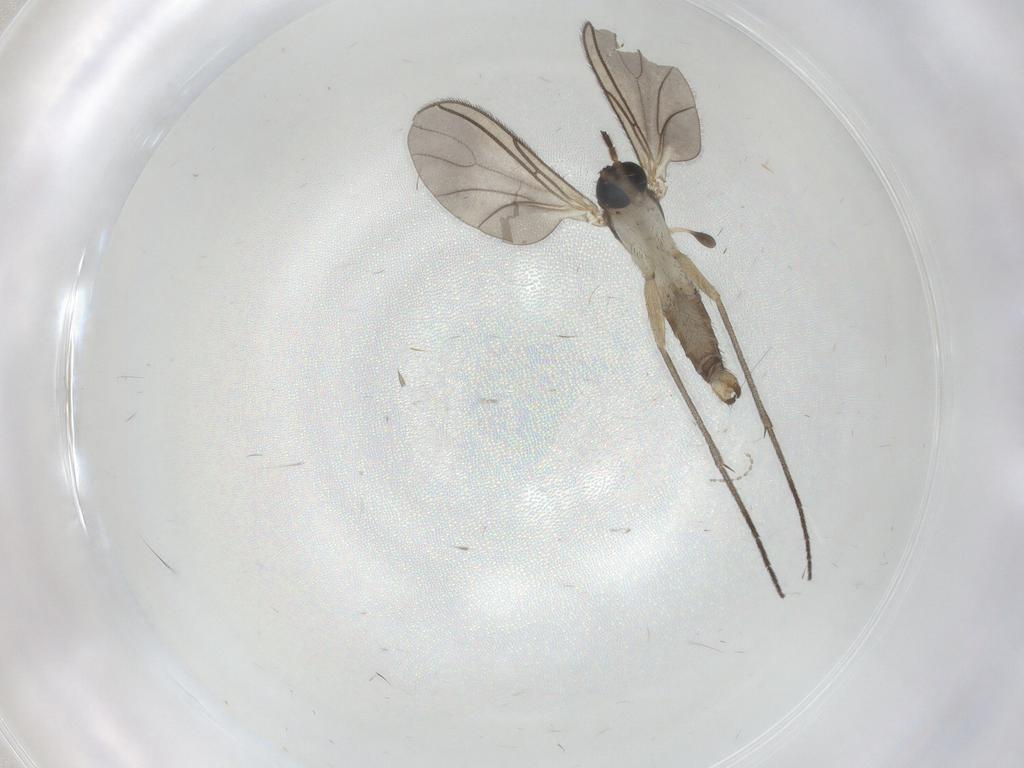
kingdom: Animalia
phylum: Arthropoda
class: Insecta
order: Diptera
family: Sciaridae
